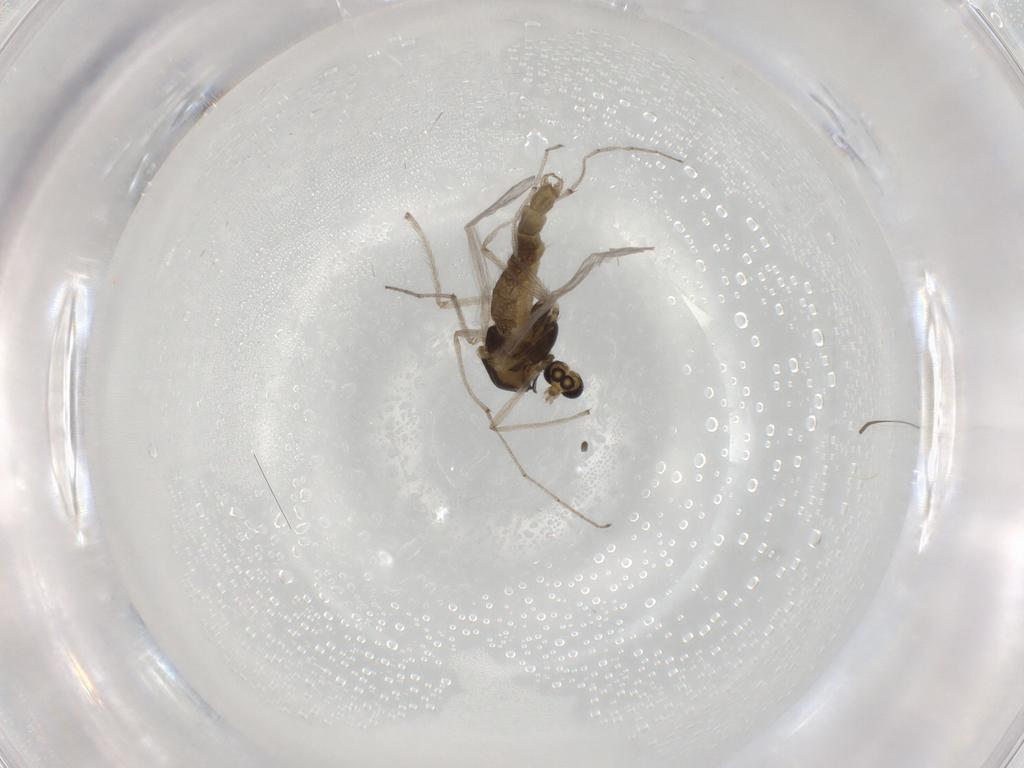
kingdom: Animalia
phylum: Arthropoda
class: Insecta
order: Diptera
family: Chironomidae
